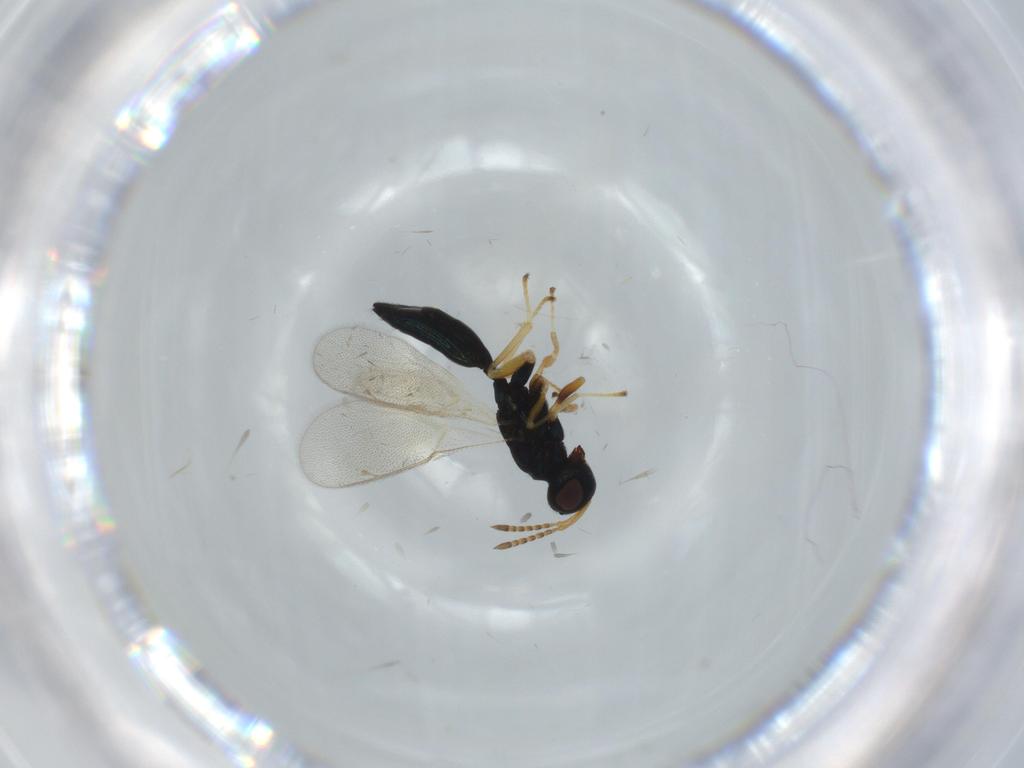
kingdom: Animalia
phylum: Arthropoda
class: Insecta
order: Hymenoptera
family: Pteromalidae
